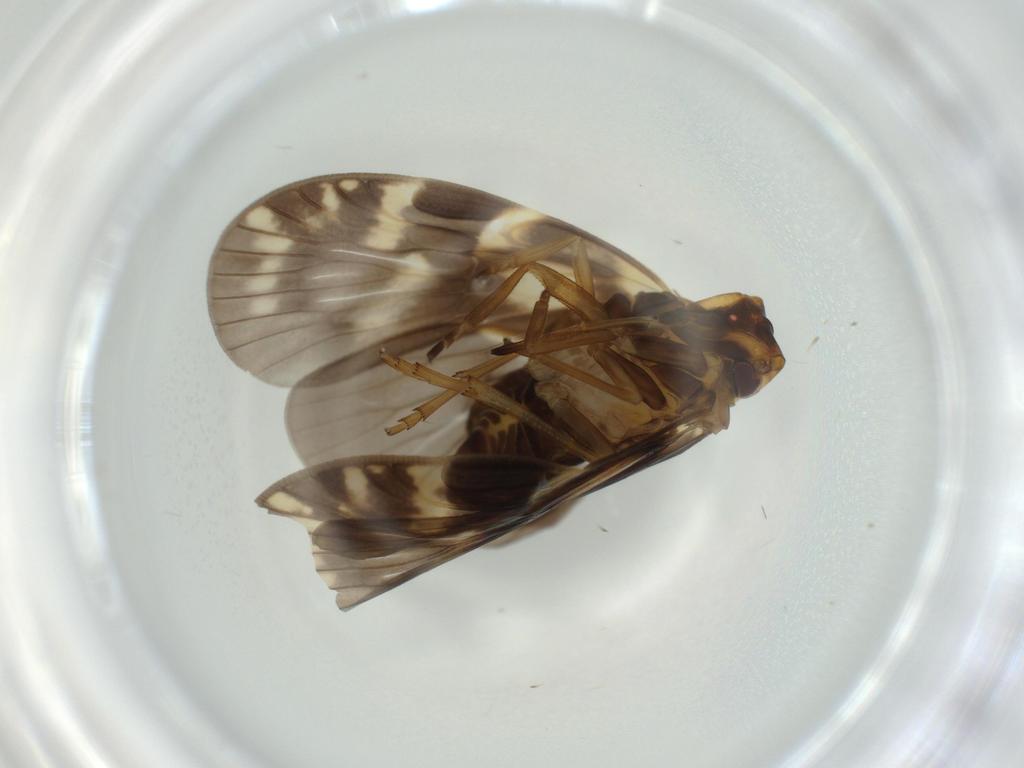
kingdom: Animalia
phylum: Arthropoda
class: Insecta
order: Hemiptera
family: Cixiidae
